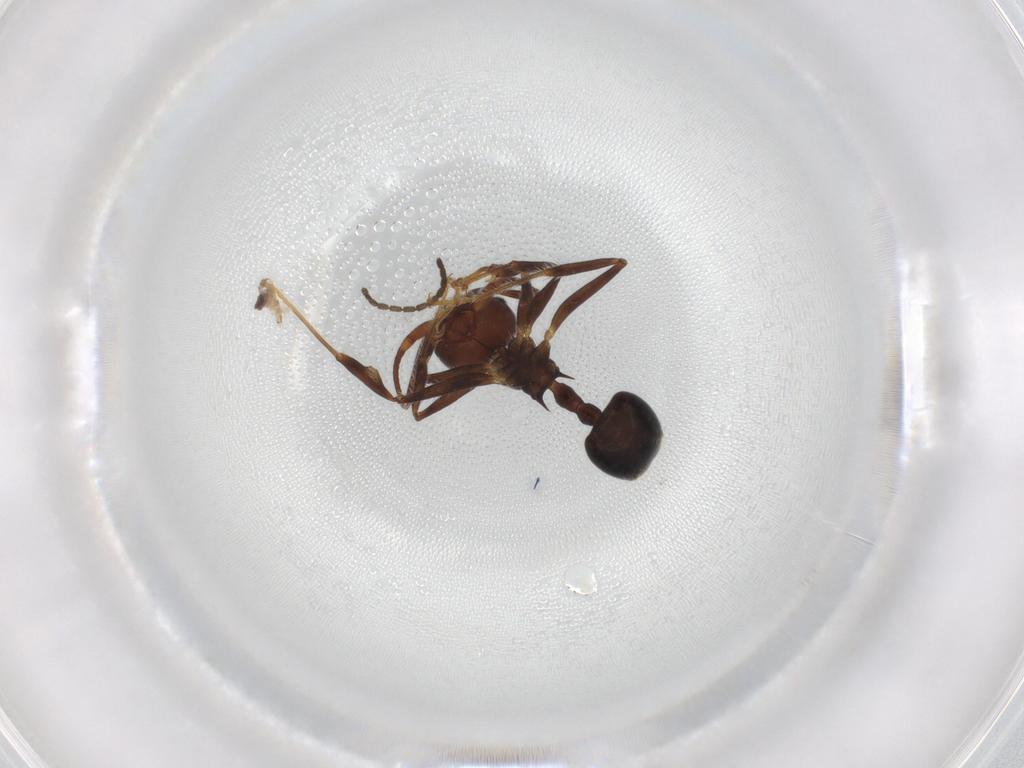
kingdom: Animalia
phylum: Arthropoda
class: Insecta
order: Hymenoptera
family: Formicidae
